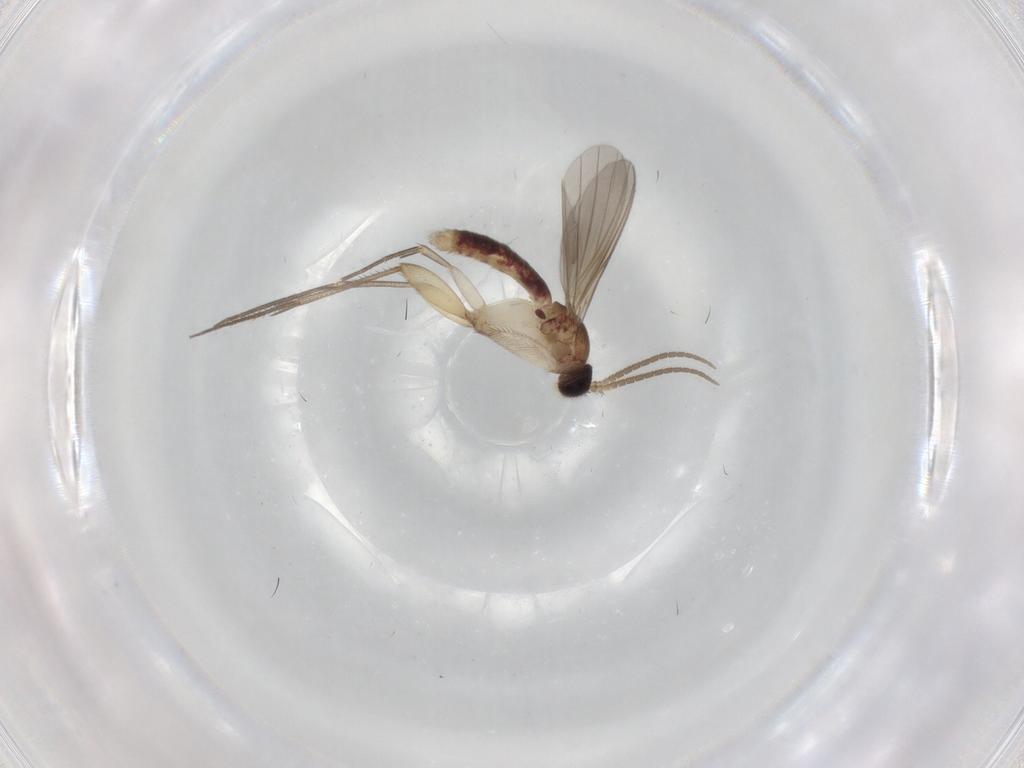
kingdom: Animalia
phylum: Arthropoda
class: Insecta
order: Diptera
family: Mycetophilidae
